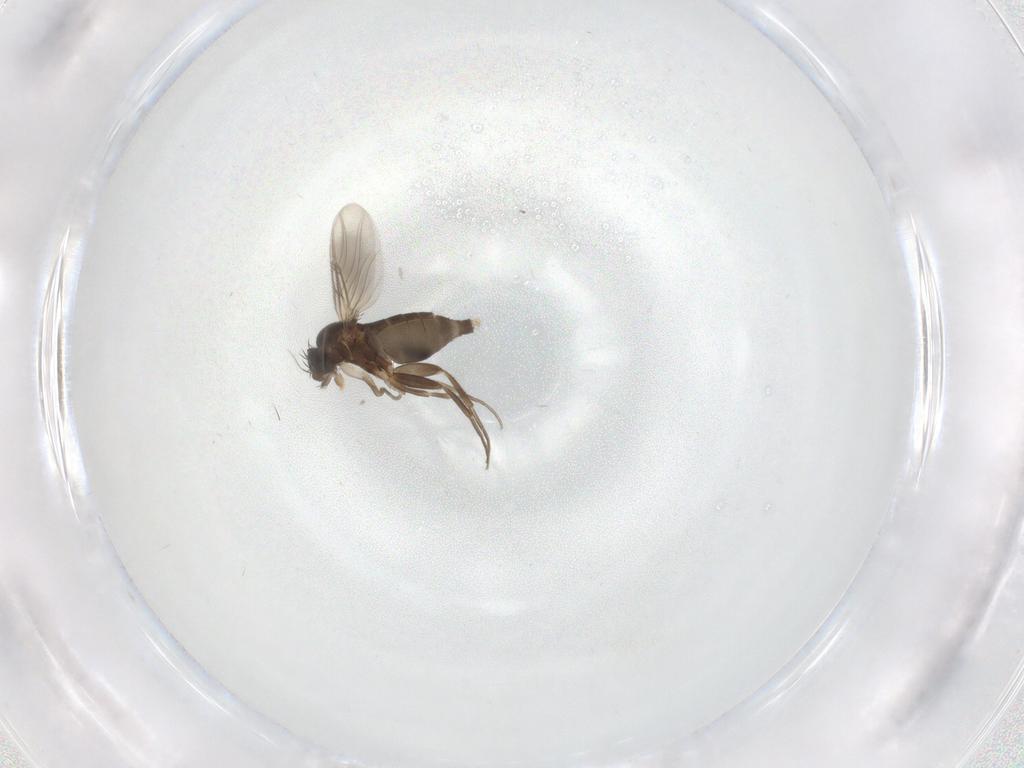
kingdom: Animalia
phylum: Arthropoda
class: Insecta
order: Diptera
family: Phoridae
